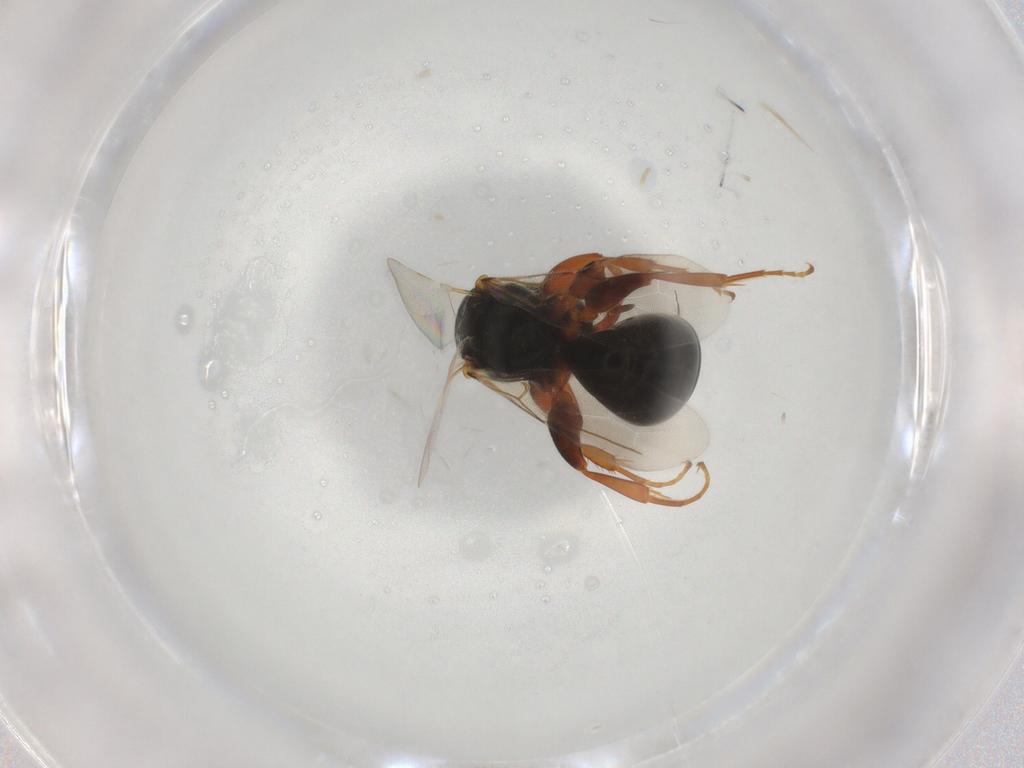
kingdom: Animalia
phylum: Arthropoda
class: Insecta
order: Hymenoptera
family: Bethylidae
